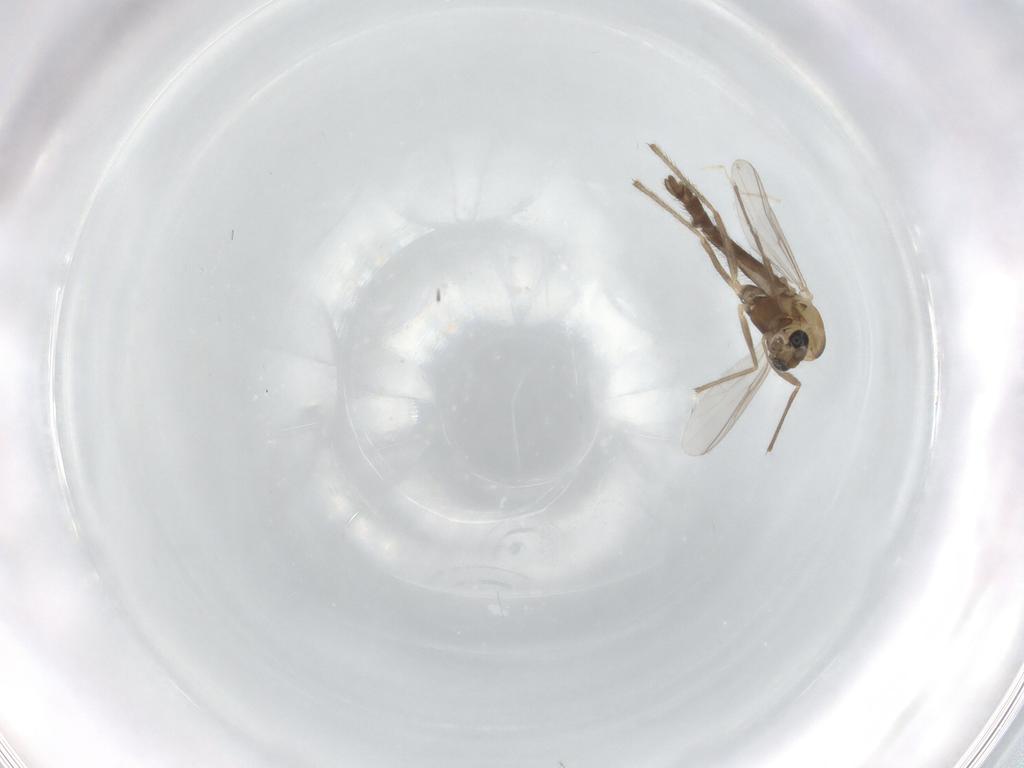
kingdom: Animalia
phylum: Arthropoda
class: Insecta
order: Diptera
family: Chironomidae
